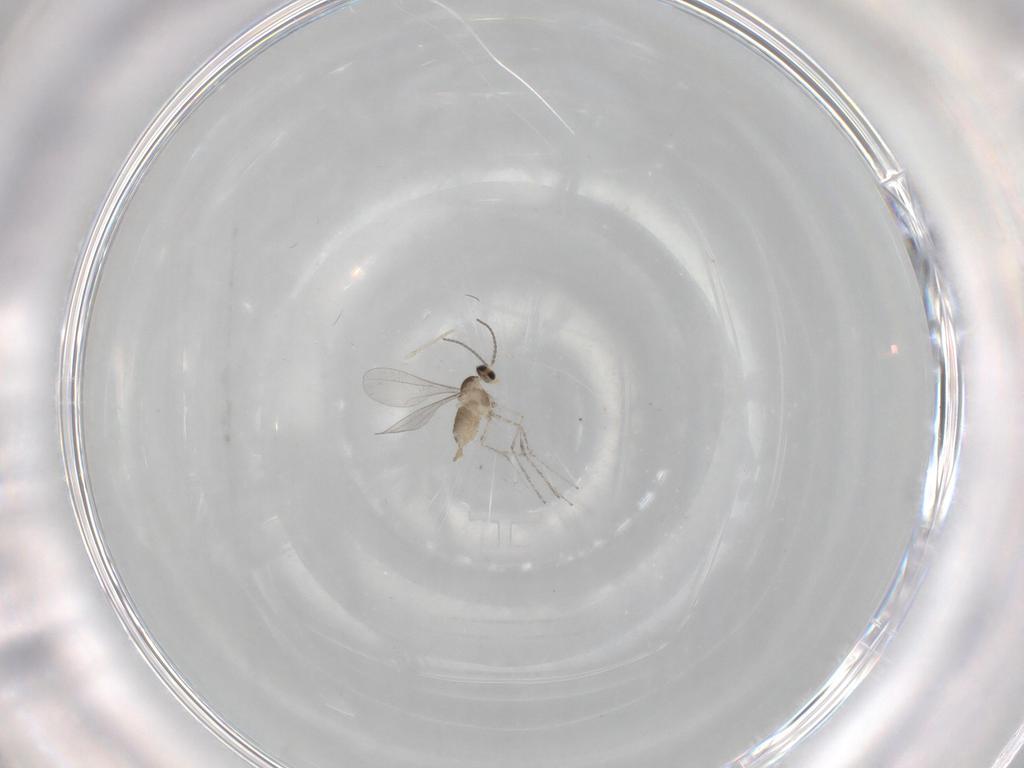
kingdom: Animalia
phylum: Arthropoda
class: Insecta
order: Diptera
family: Cecidomyiidae
